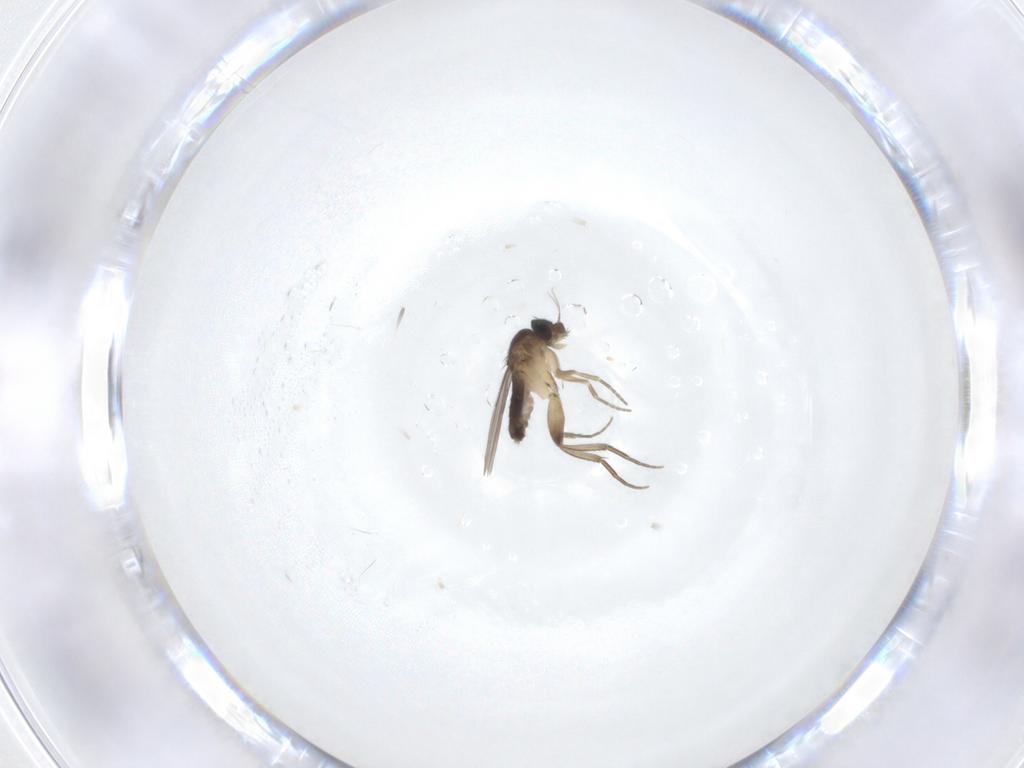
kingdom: Animalia
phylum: Arthropoda
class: Insecta
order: Diptera
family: Phoridae
